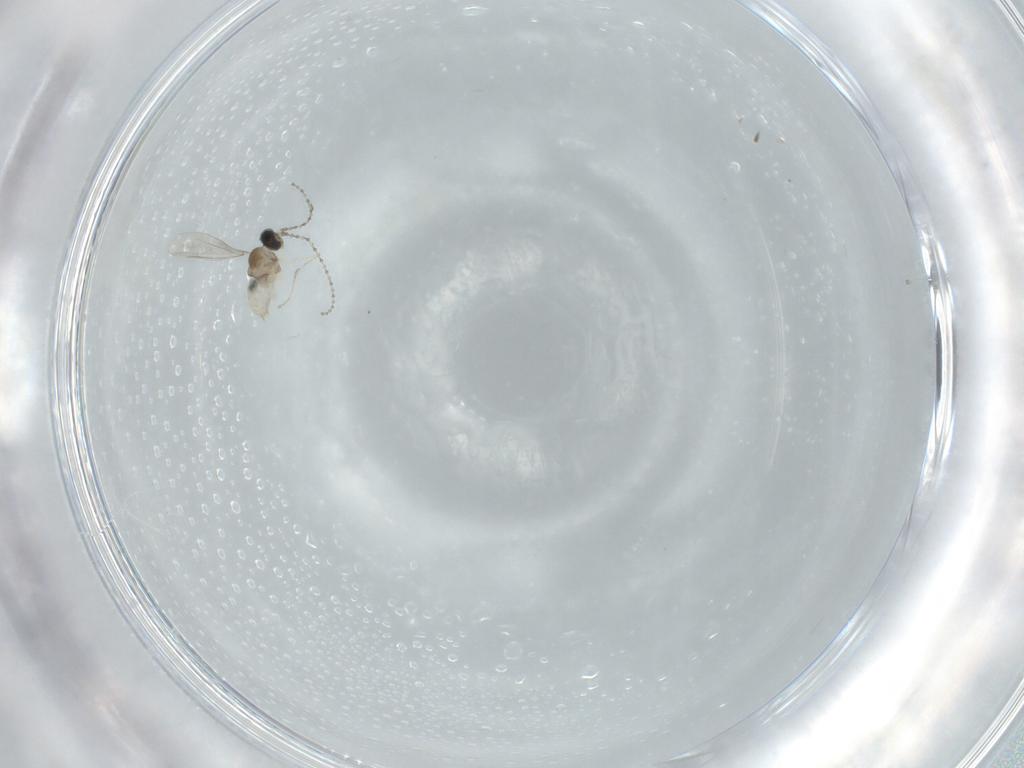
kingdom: Animalia
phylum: Arthropoda
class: Insecta
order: Diptera
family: Cecidomyiidae
